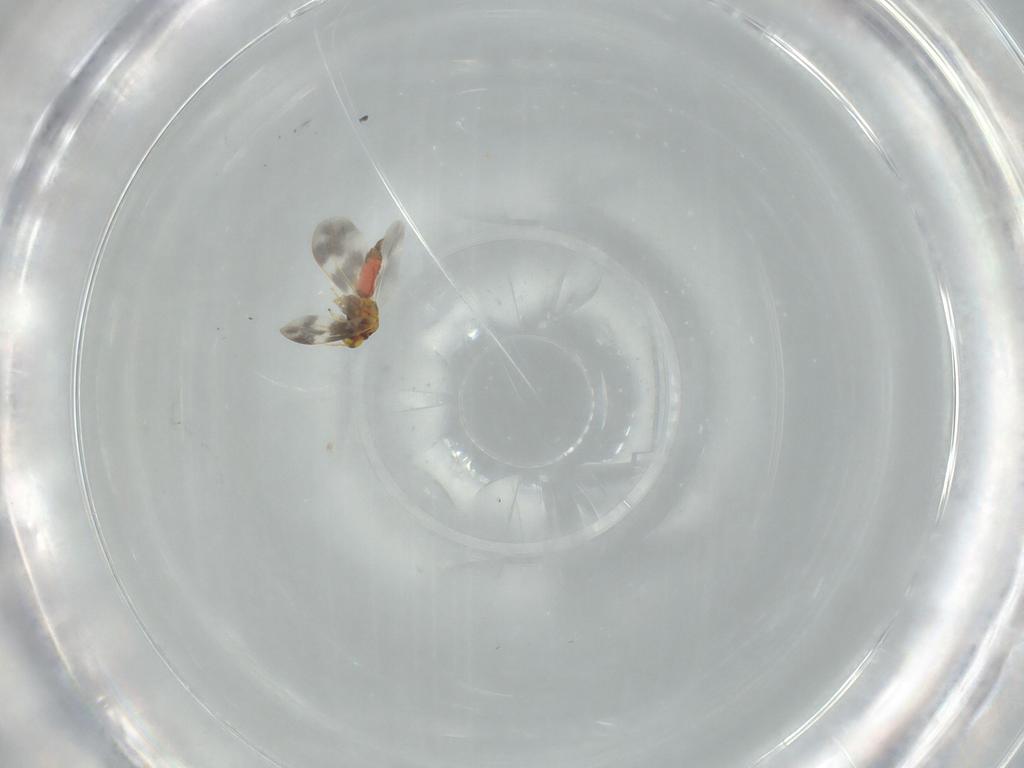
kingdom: Animalia
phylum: Arthropoda
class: Insecta
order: Hemiptera
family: Aleyrodidae
